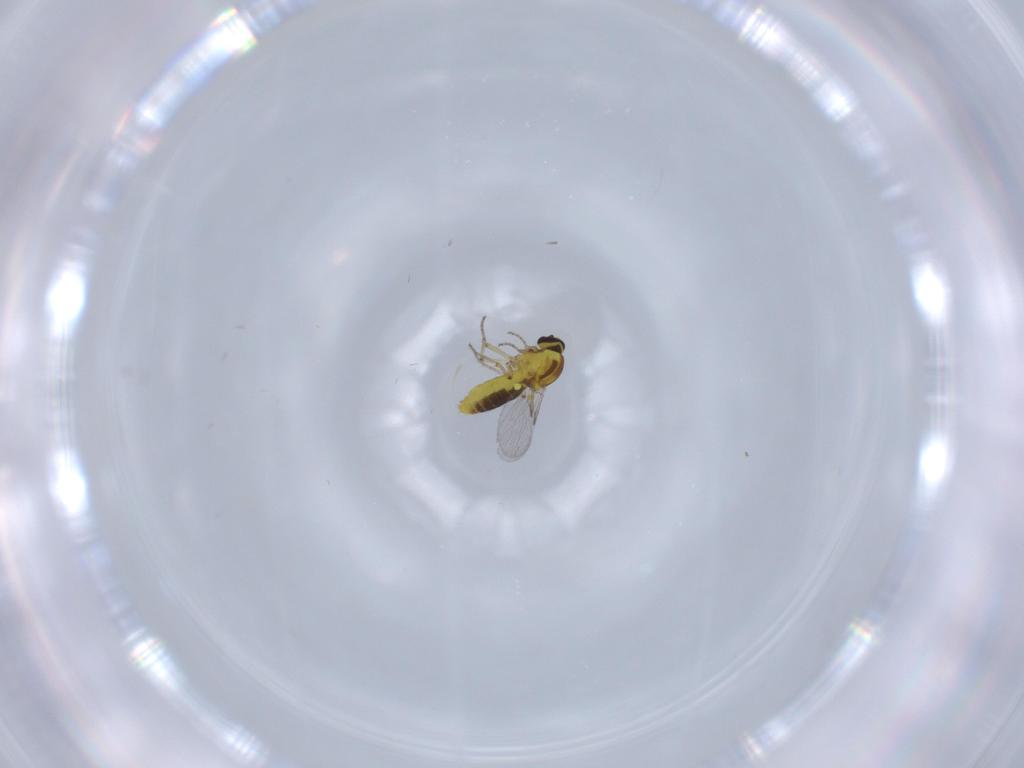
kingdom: Animalia
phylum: Arthropoda
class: Insecta
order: Diptera
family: Ceratopogonidae
